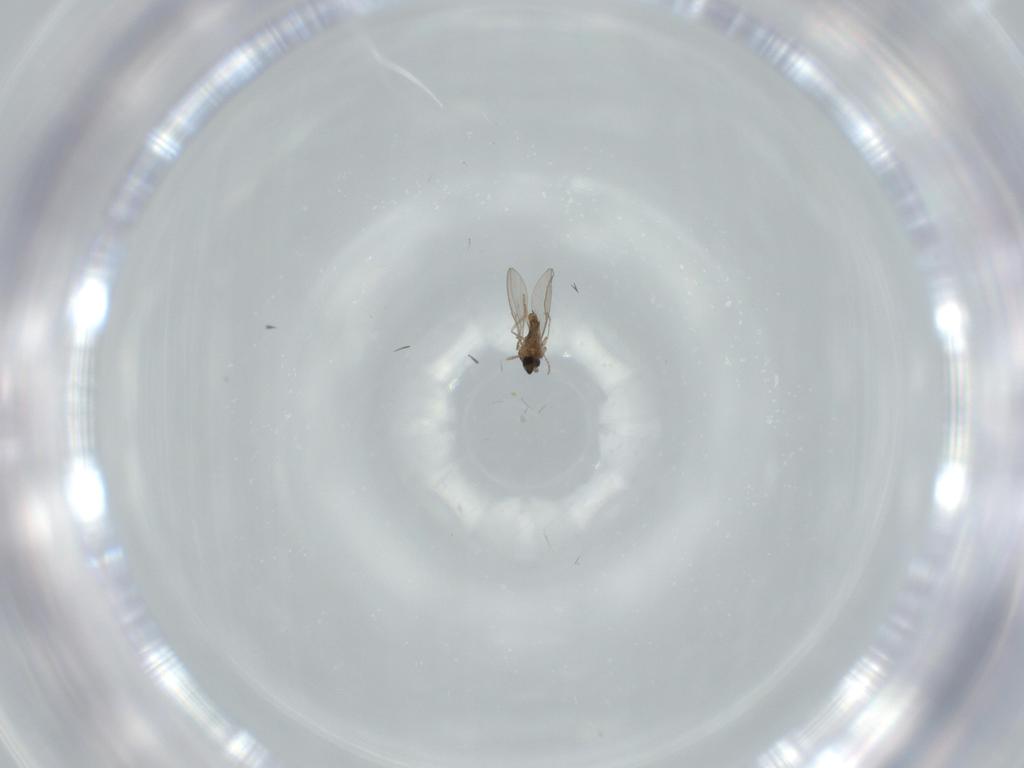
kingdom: Animalia
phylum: Arthropoda
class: Insecta
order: Diptera
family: Cecidomyiidae
